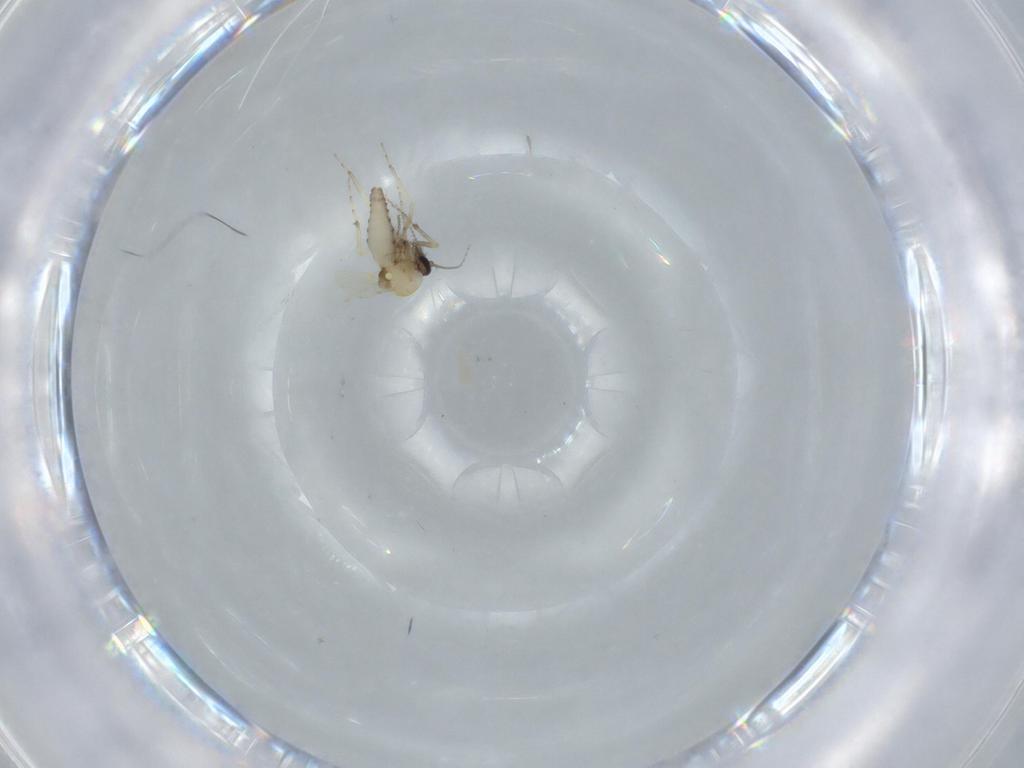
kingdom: Animalia
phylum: Arthropoda
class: Insecta
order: Diptera
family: Ceratopogonidae
